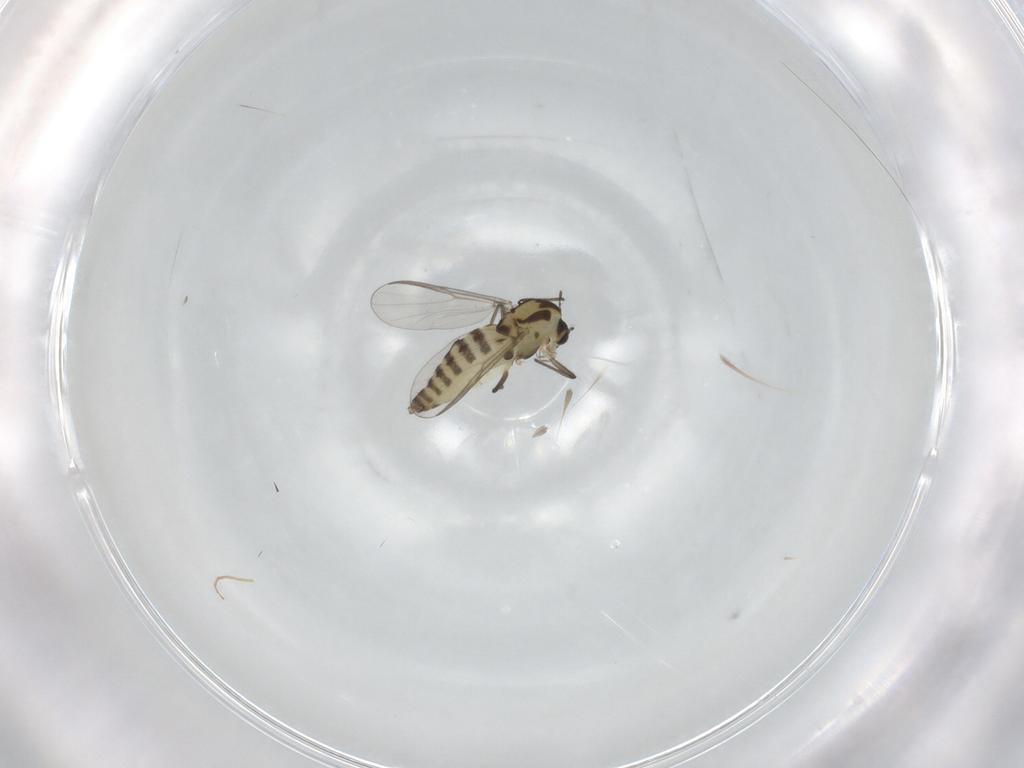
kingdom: Animalia
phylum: Arthropoda
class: Insecta
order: Diptera
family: Chironomidae
